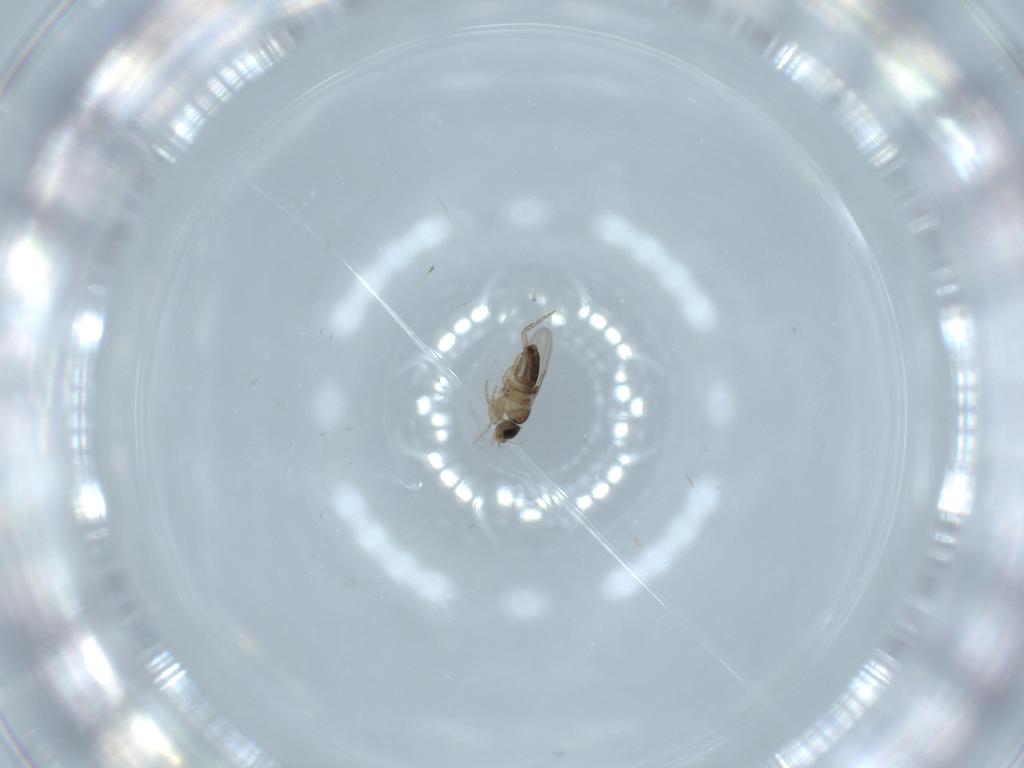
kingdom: Animalia
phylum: Arthropoda
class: Insecta
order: Diptera
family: Phoridae
